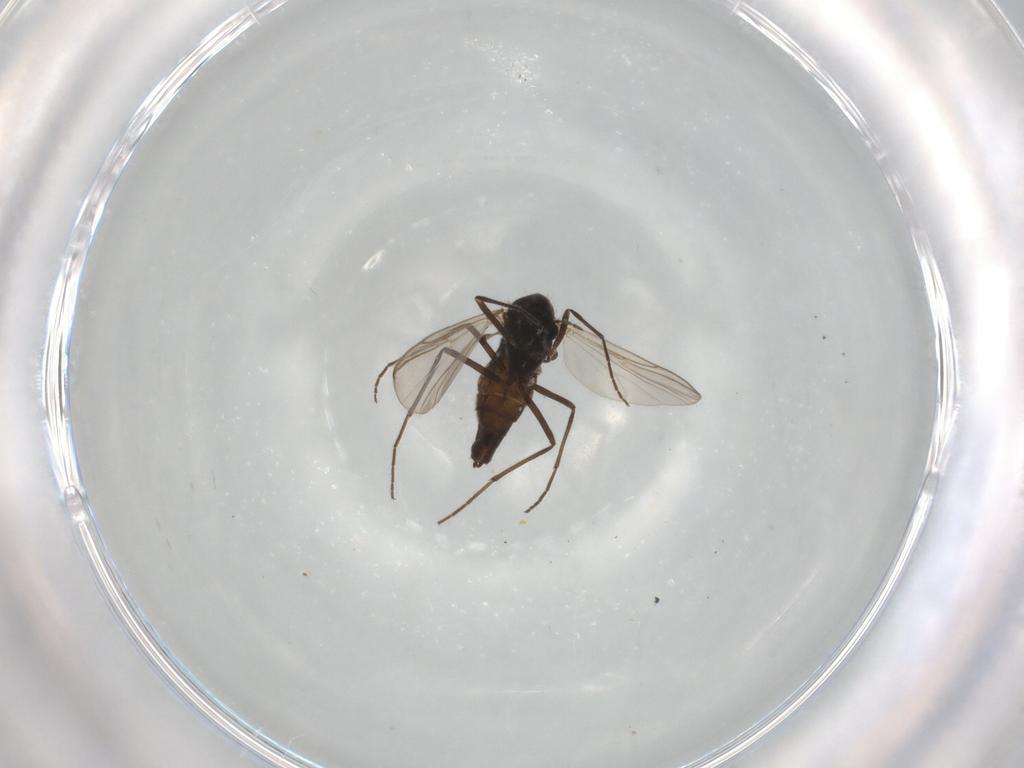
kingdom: Animalia
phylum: Arthropoda
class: Insecta
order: Diptera
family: Chironomidae
